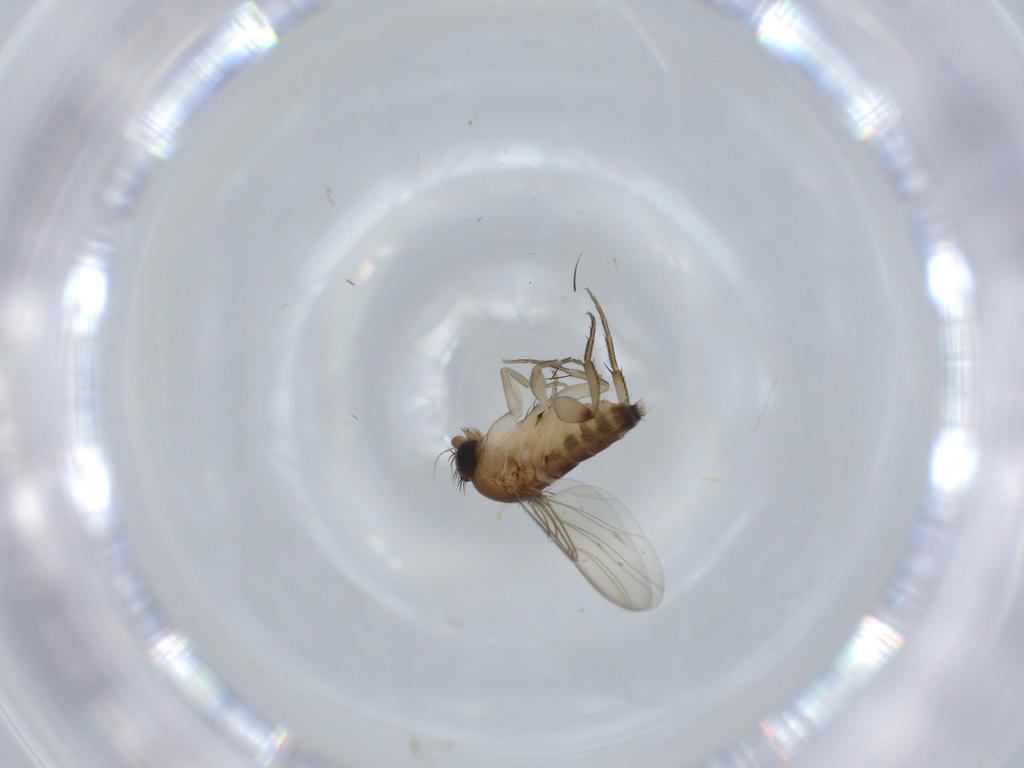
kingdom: Animalia
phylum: Arthropoda
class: Insecta
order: Diptera
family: Phoridae
